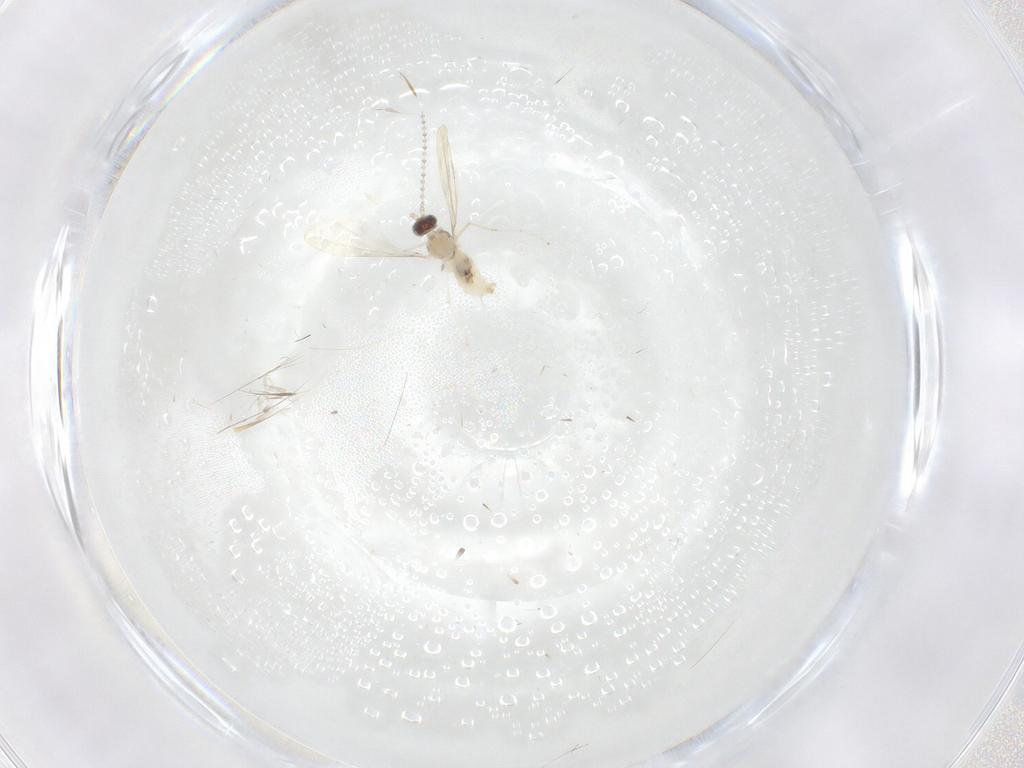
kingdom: Animalia
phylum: Arthropoda
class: Insecta
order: Diptera
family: Cecidomyiidae
